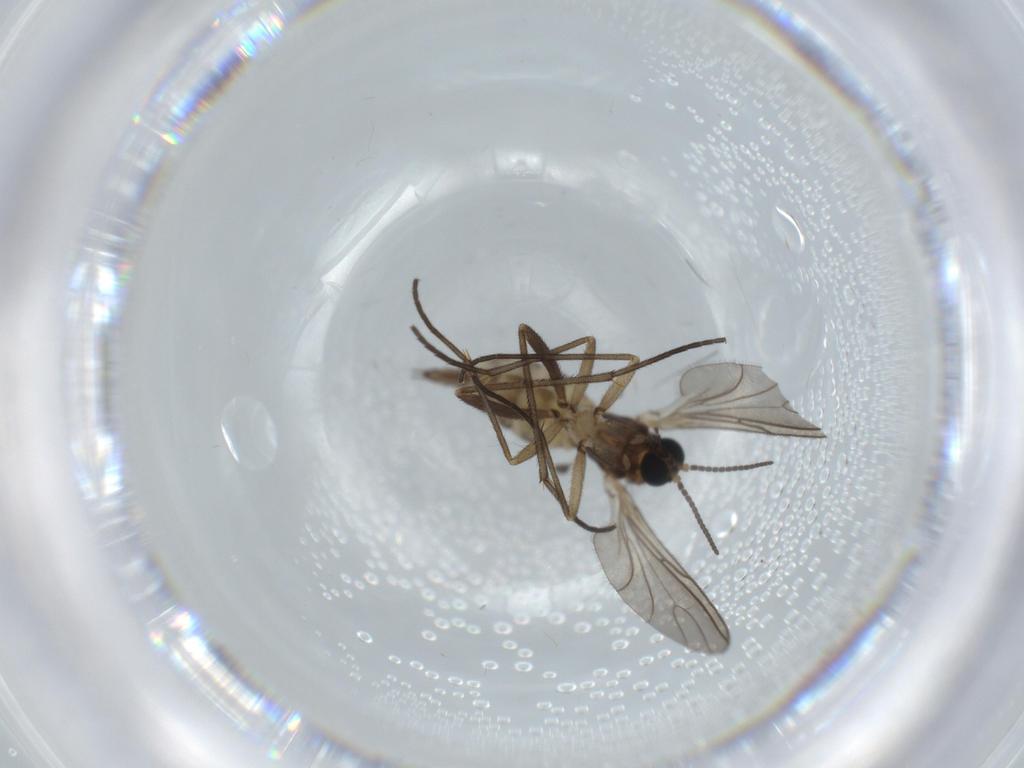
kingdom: Animalia
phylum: Arthropoda
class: Insecta
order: Diptera
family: Sciaridae
